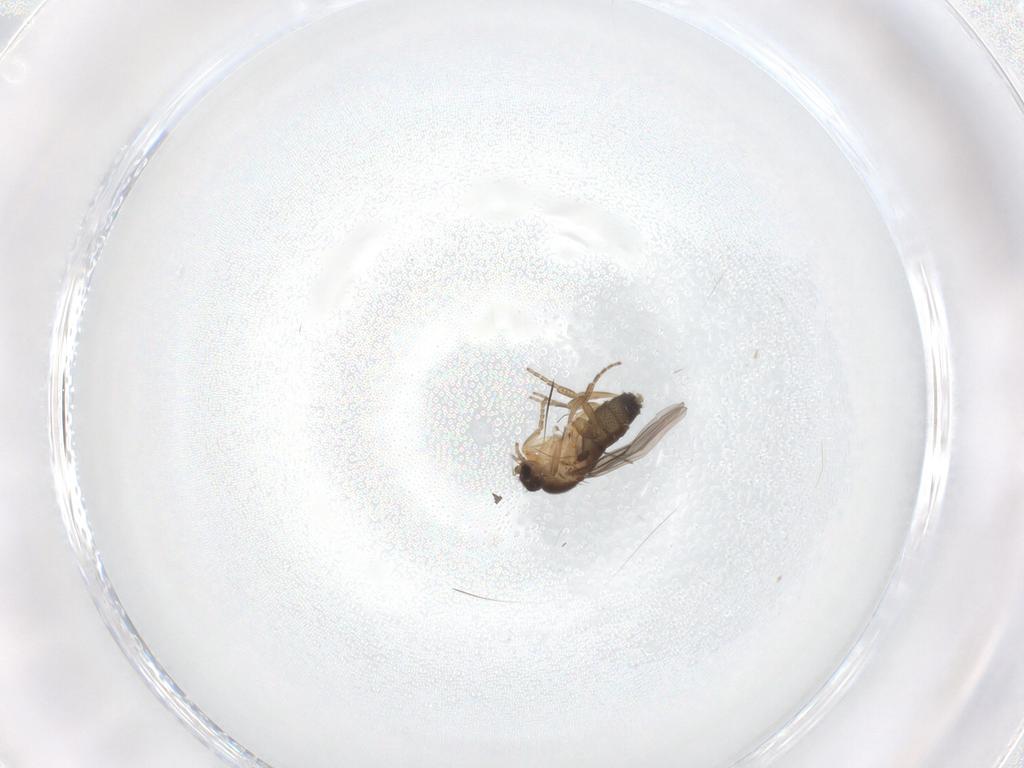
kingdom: Animalia
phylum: Arthropoda
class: Insecta
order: Diptera
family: Phoridae
